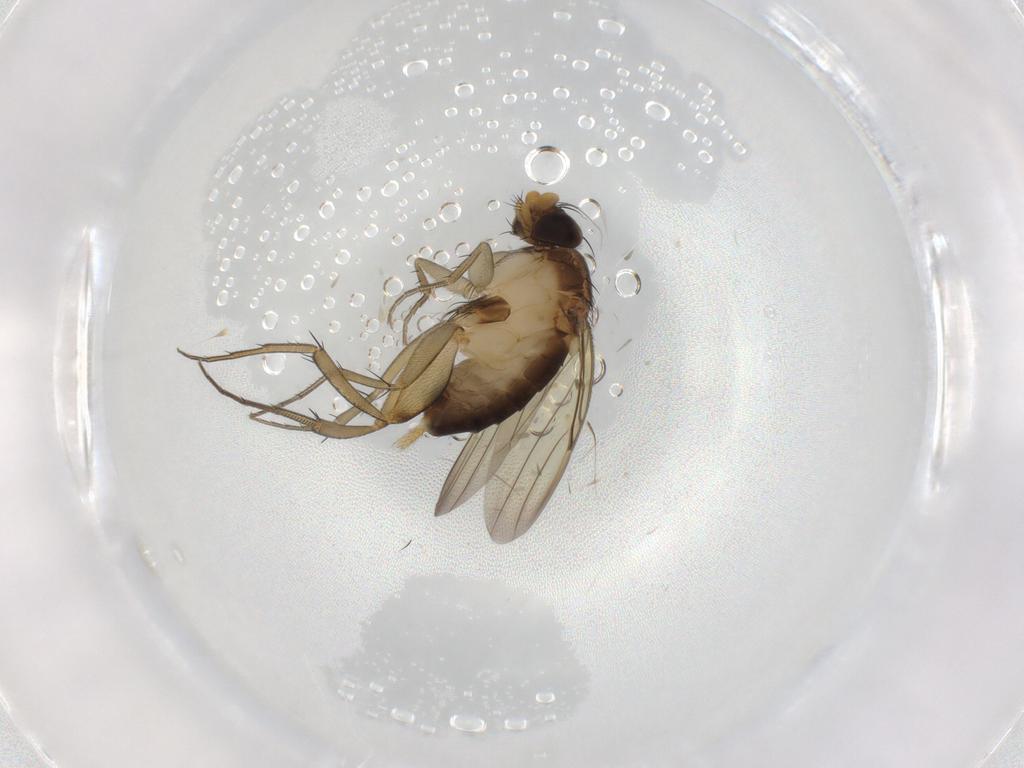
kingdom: Animalia
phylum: Arthropoda
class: Insecta
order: Diptera
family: Phoridae
